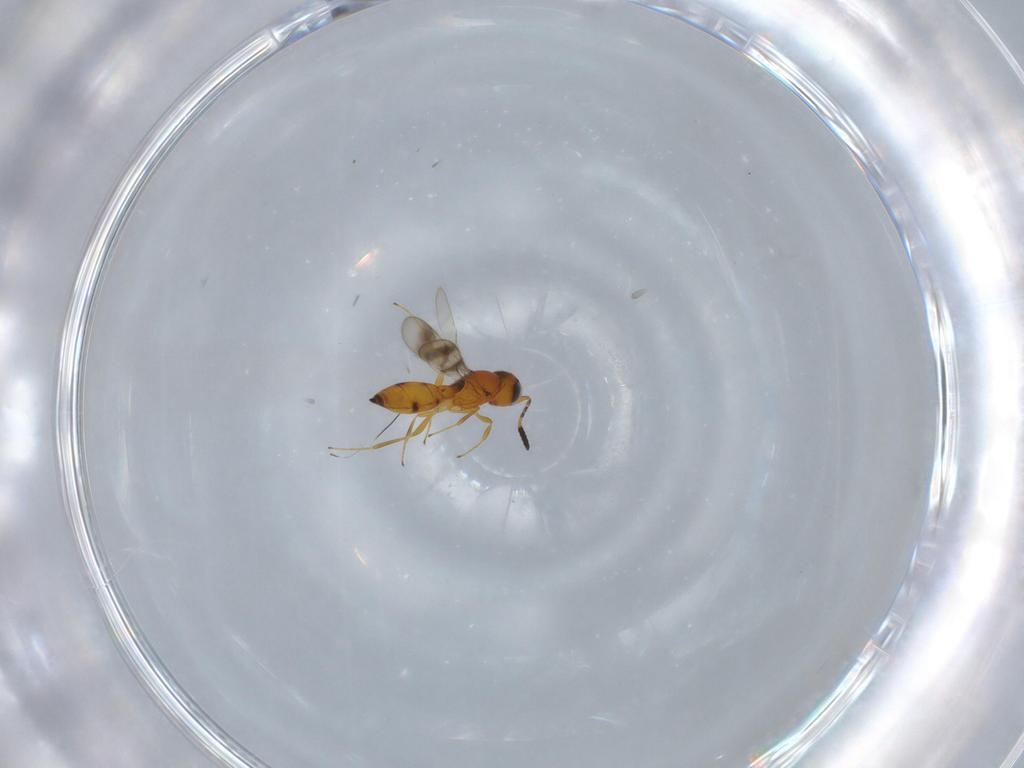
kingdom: Animalia
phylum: Arthropoda
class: Insecta
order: Hymenoptera
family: Scelionidae
